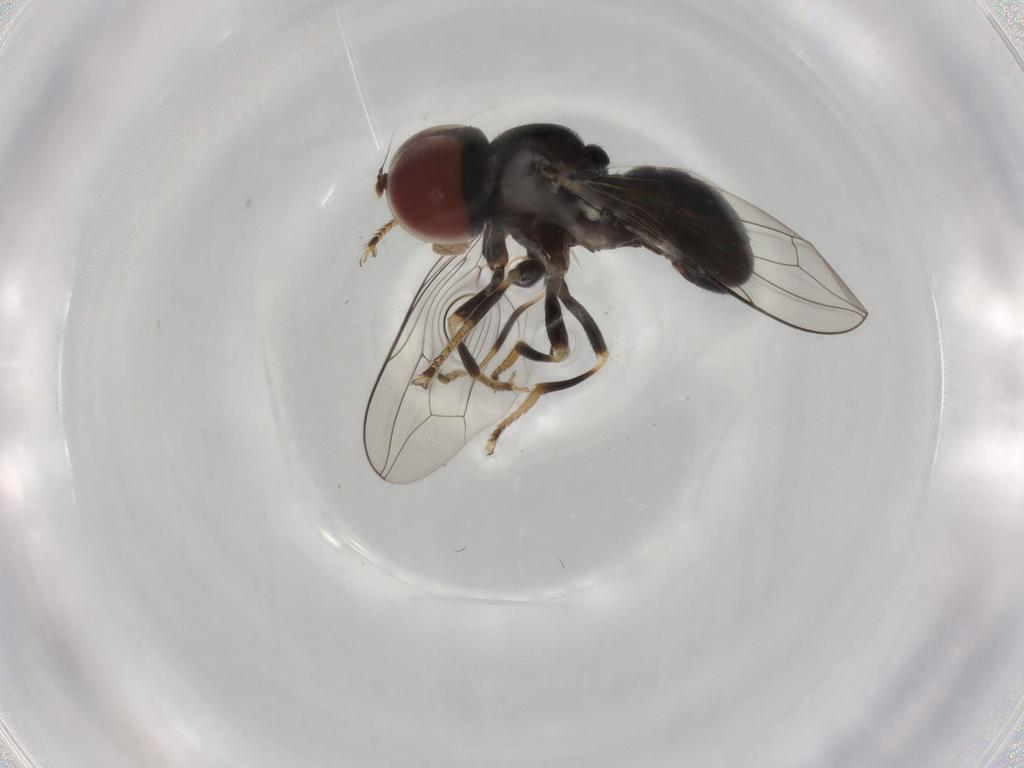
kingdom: Animalia
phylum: Arthropoda
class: Insecta
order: Diptera
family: Pipunculidae
